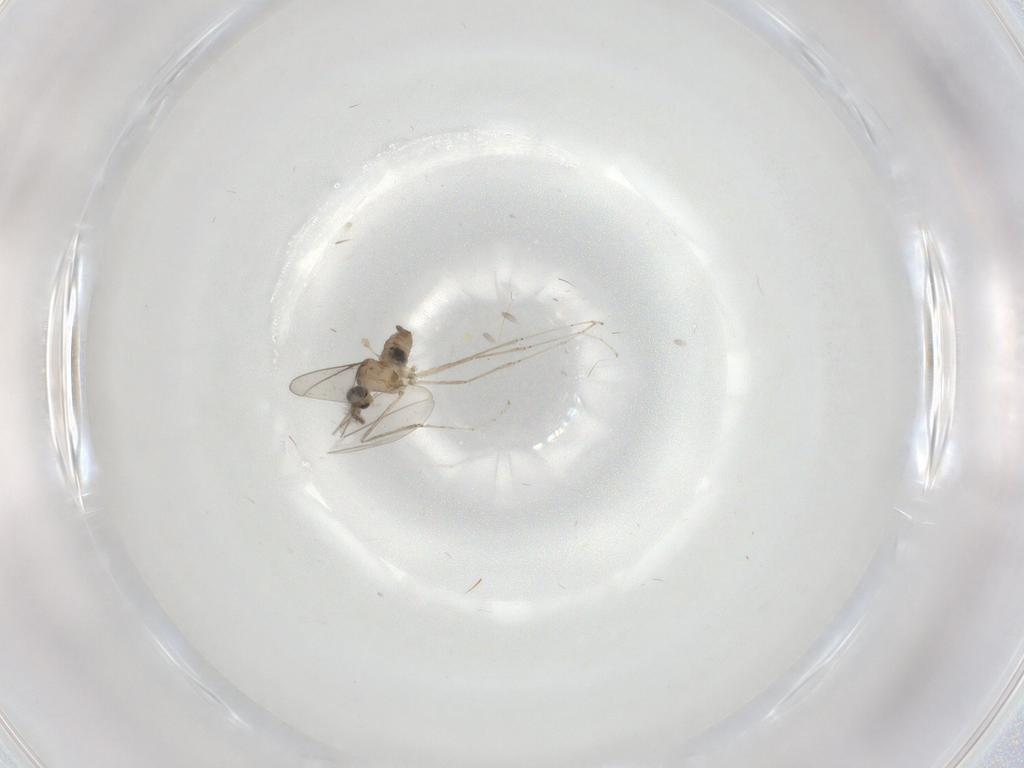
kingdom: Animalia
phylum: Arthropoda
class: Insecta
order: Diptera
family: Cecidomyiidae
